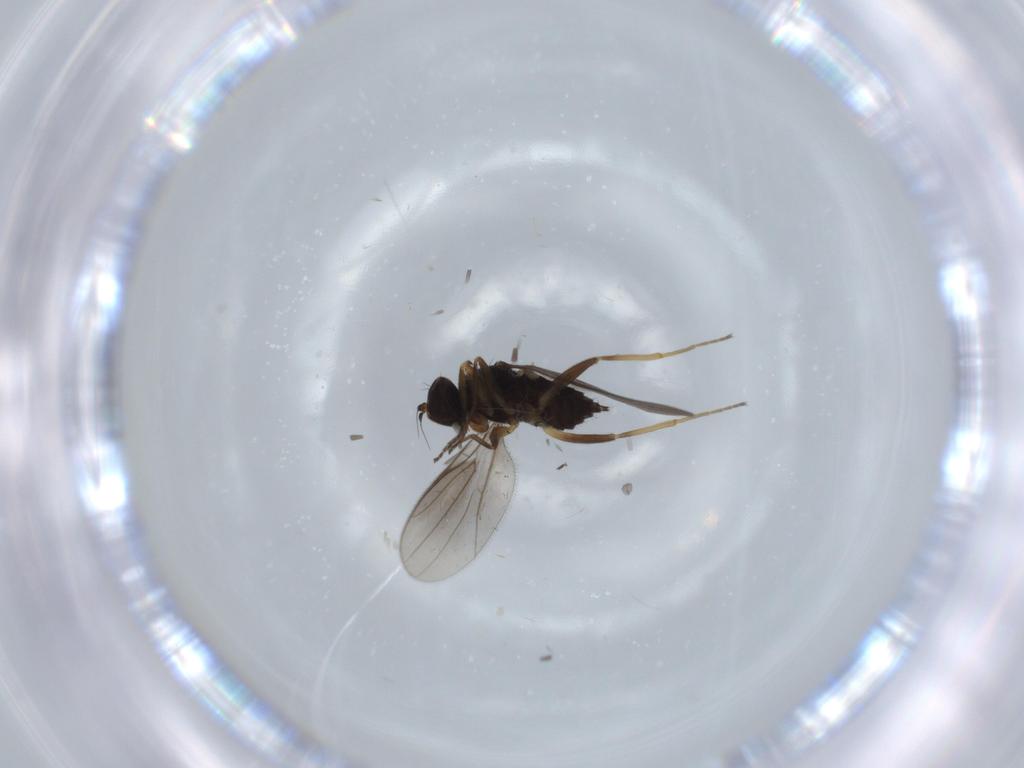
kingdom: Animalia
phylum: Arthropoda
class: Insecta
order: Diptera
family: Hybotidae
